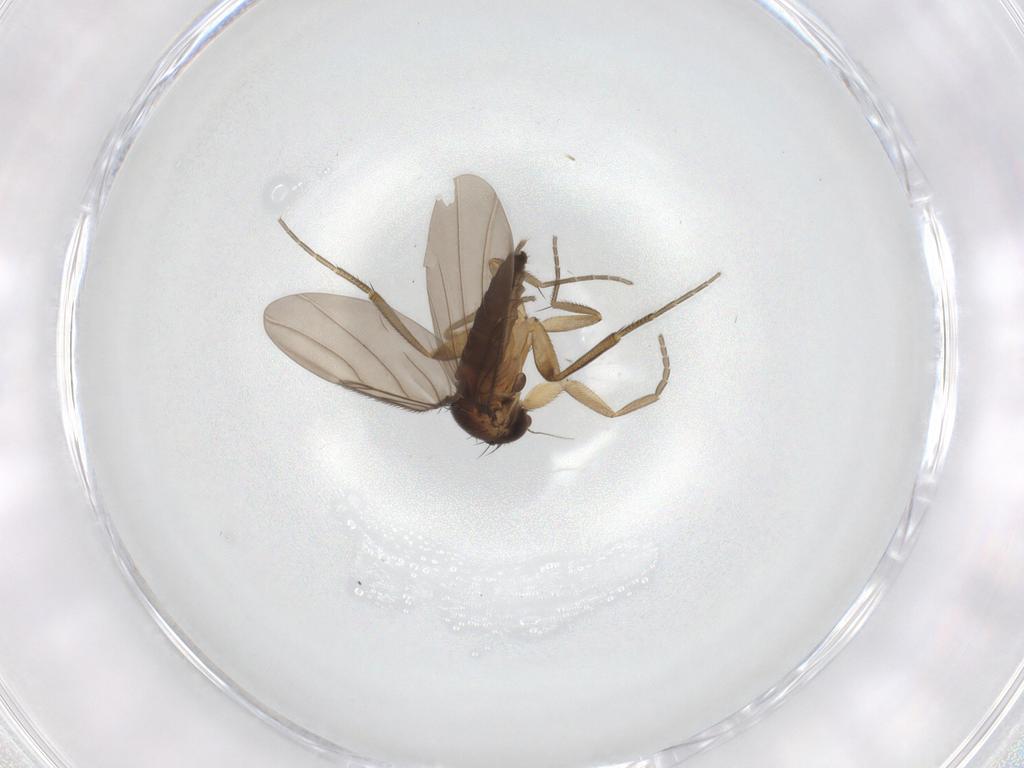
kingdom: Animalia
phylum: Arthropoda
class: Insecta
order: Diptera
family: Phoridae
